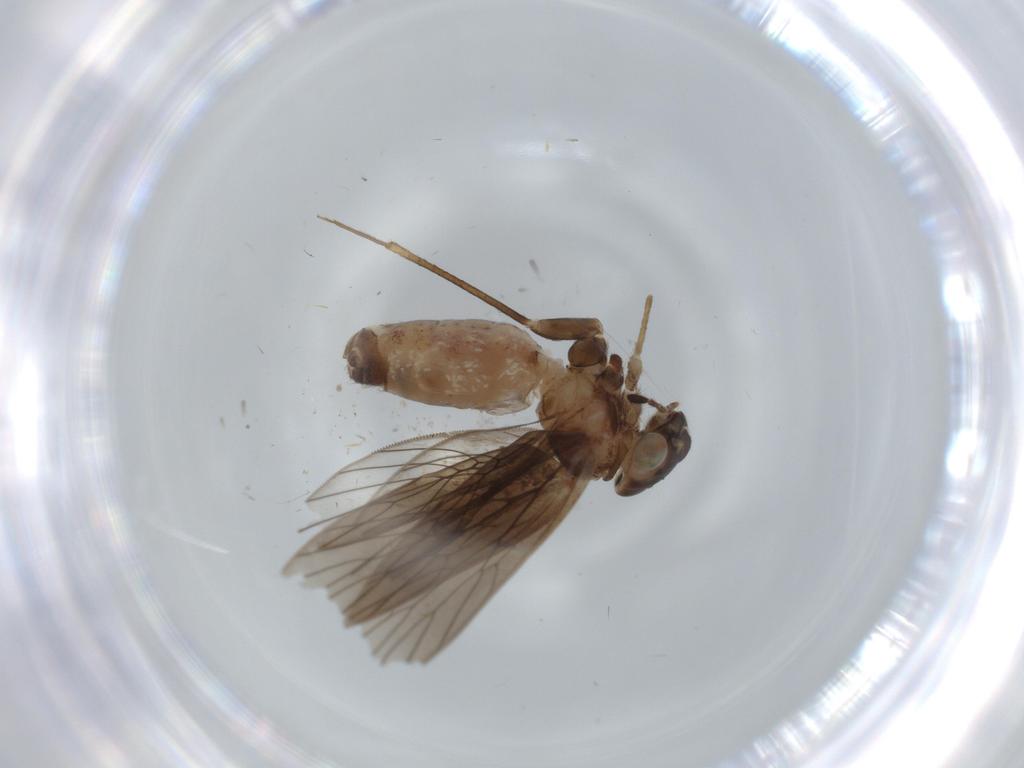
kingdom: Animalia
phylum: Arthropoda
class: Insecta
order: Psocodea
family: Lepidopsocidae
